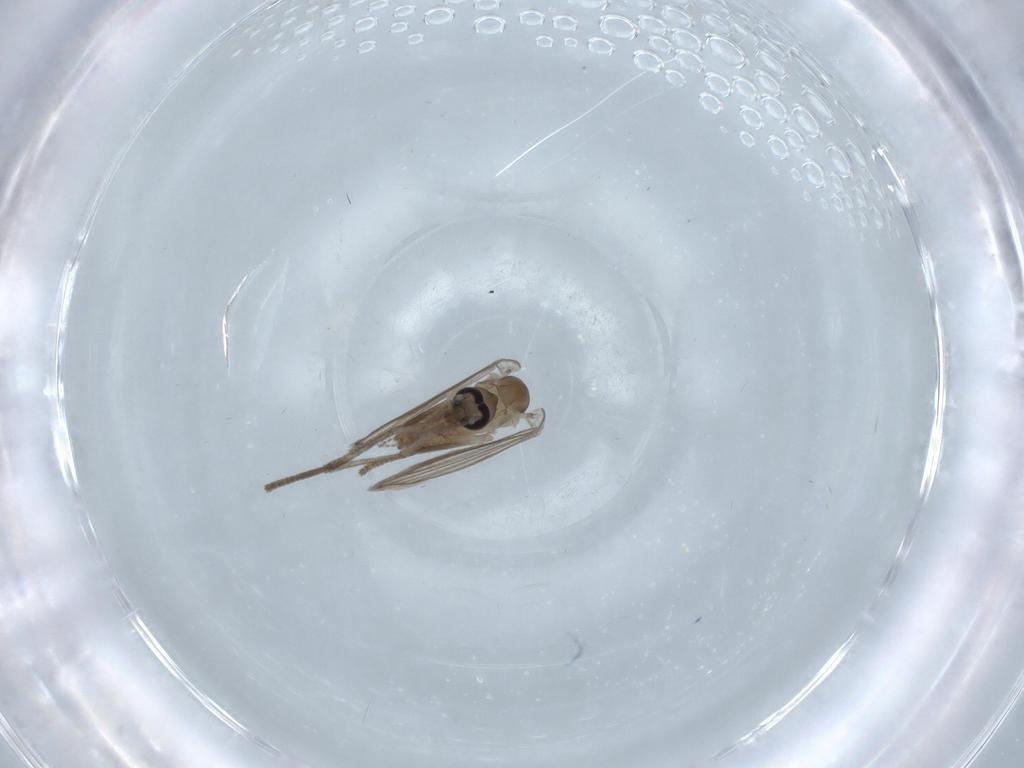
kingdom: Animalia
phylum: Arthropoda
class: Insecta
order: Diptera
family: Psychodidae
